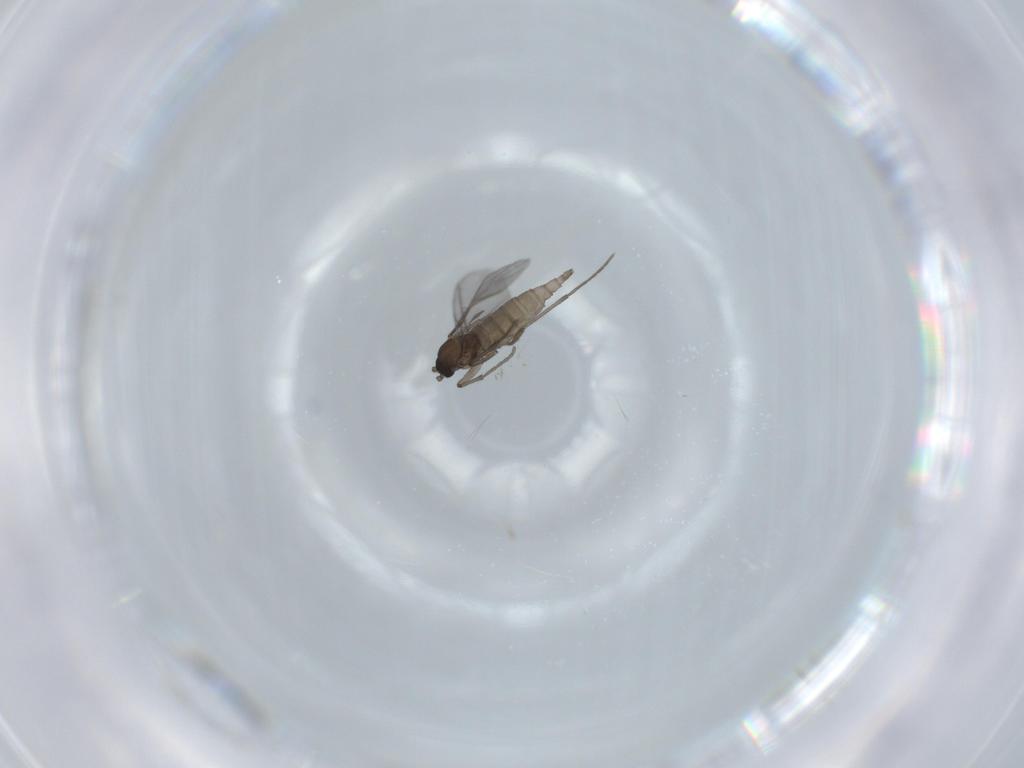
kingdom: Animalia
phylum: Arthropoda
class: Insecta
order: Diptera
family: Sciaridae
